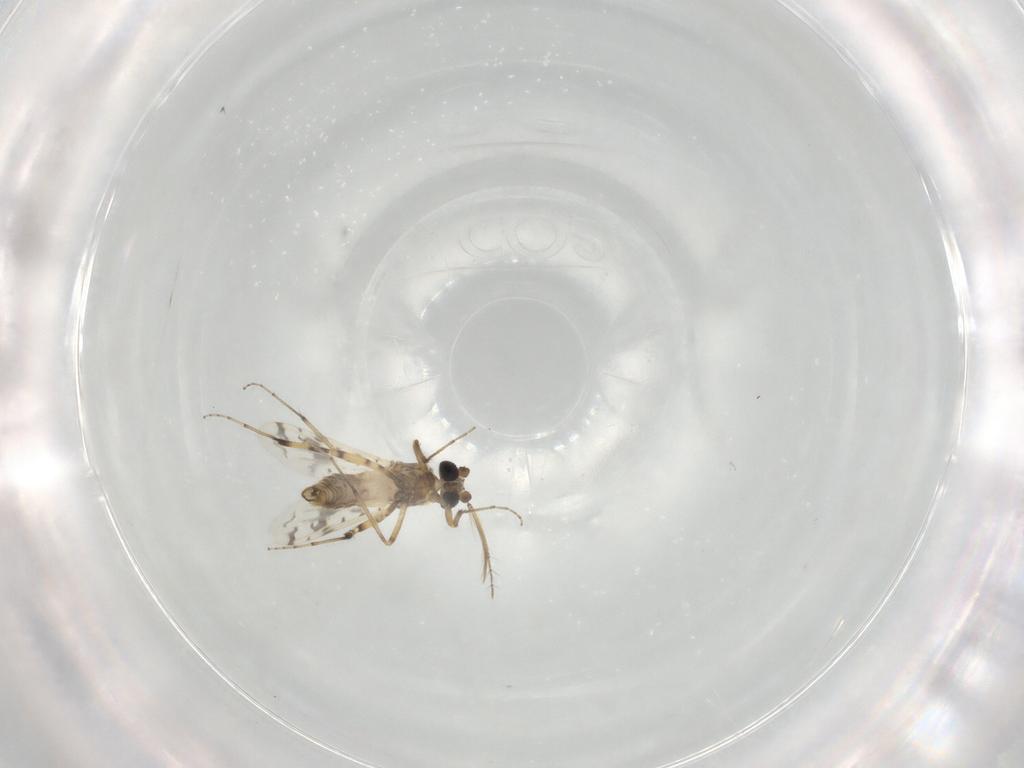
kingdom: Animalia
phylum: Arthropoda
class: Insecta
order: Diptera
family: Ceratopogonidae
